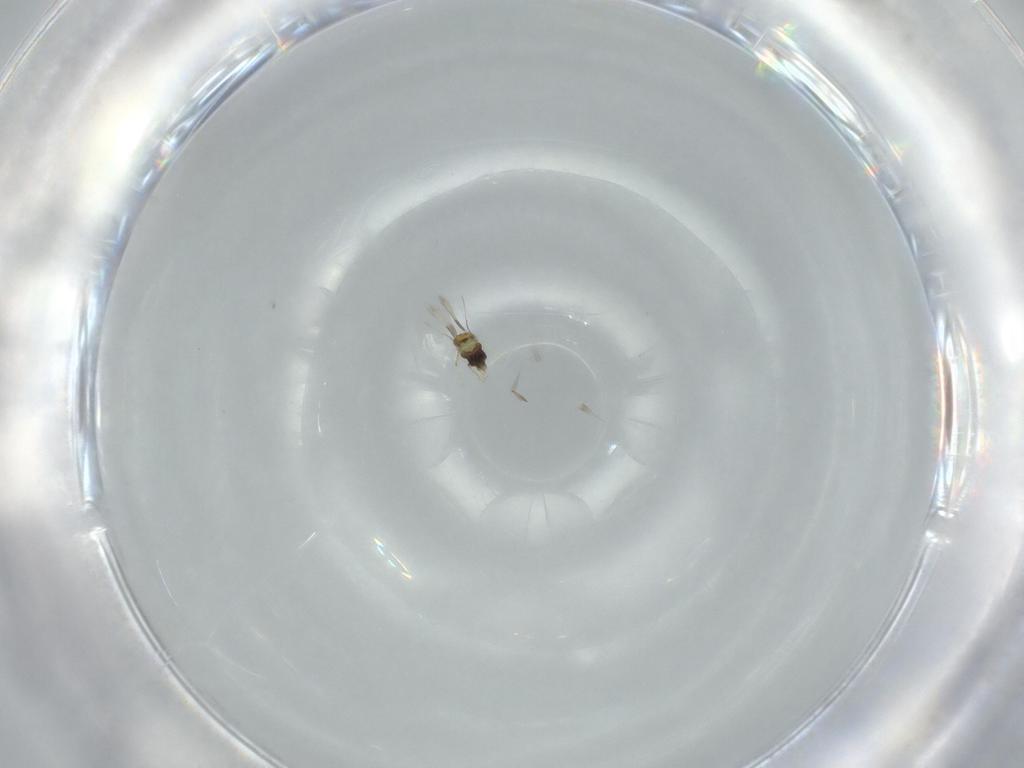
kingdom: Animalia
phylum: Arthropoda
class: Insecta
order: Hymenoptera
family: Aphelinidae
